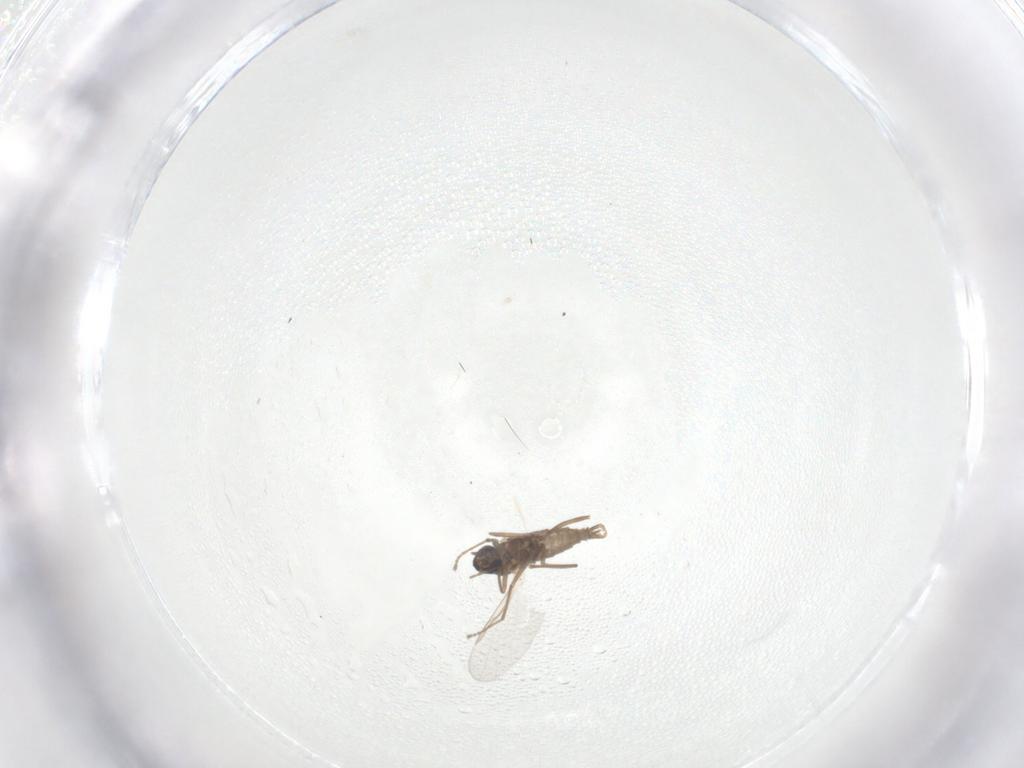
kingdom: Animalia
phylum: Arthropoda
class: Insecta
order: Diptera
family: Cecidomyiidae
